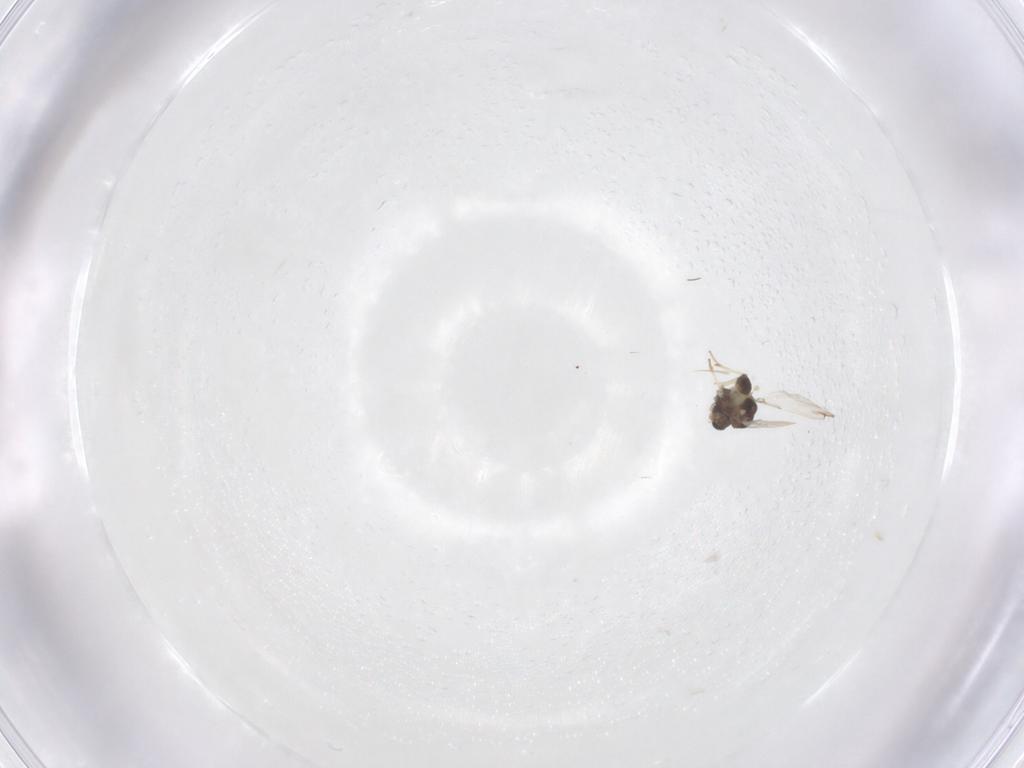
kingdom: Animalia
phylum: Arthropoda
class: Insecta
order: Diptera
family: Chironomidae
